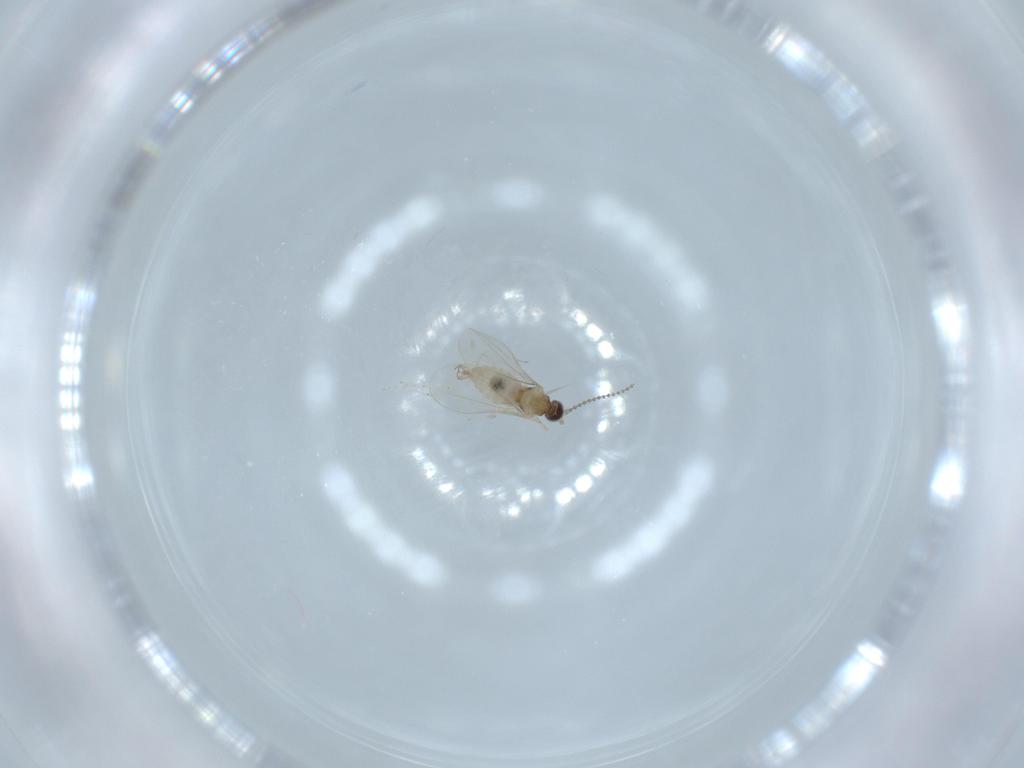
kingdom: Animalia
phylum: Arthropoda
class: Insecta
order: Diptera
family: Cecidomyiidae
